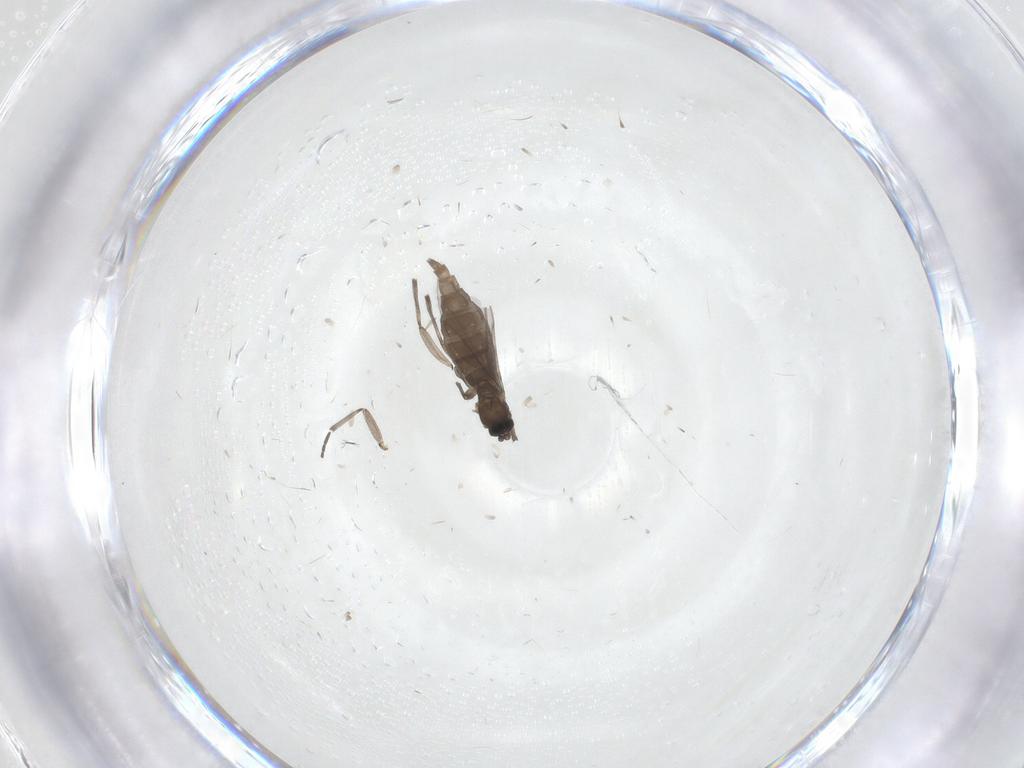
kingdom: Animalia
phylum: Arthropoda
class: Insecta
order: Diptera
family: Sciaridae
